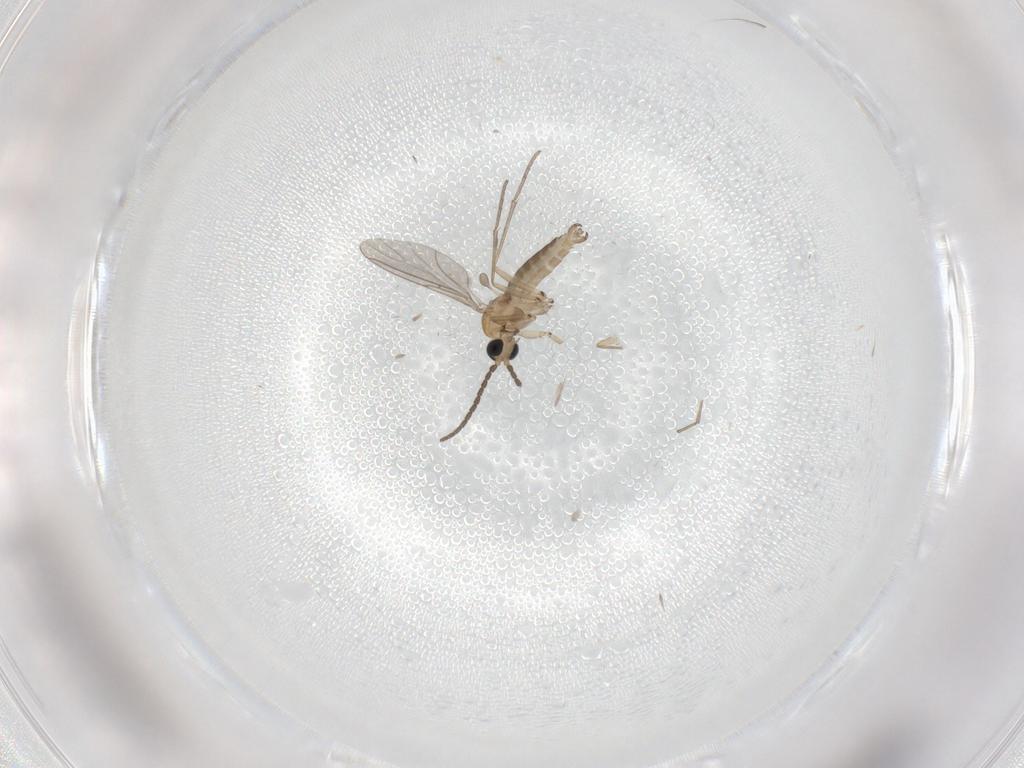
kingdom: Animalia
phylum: Arthropoda
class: Insecta
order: Diptera
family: Sciaridae
